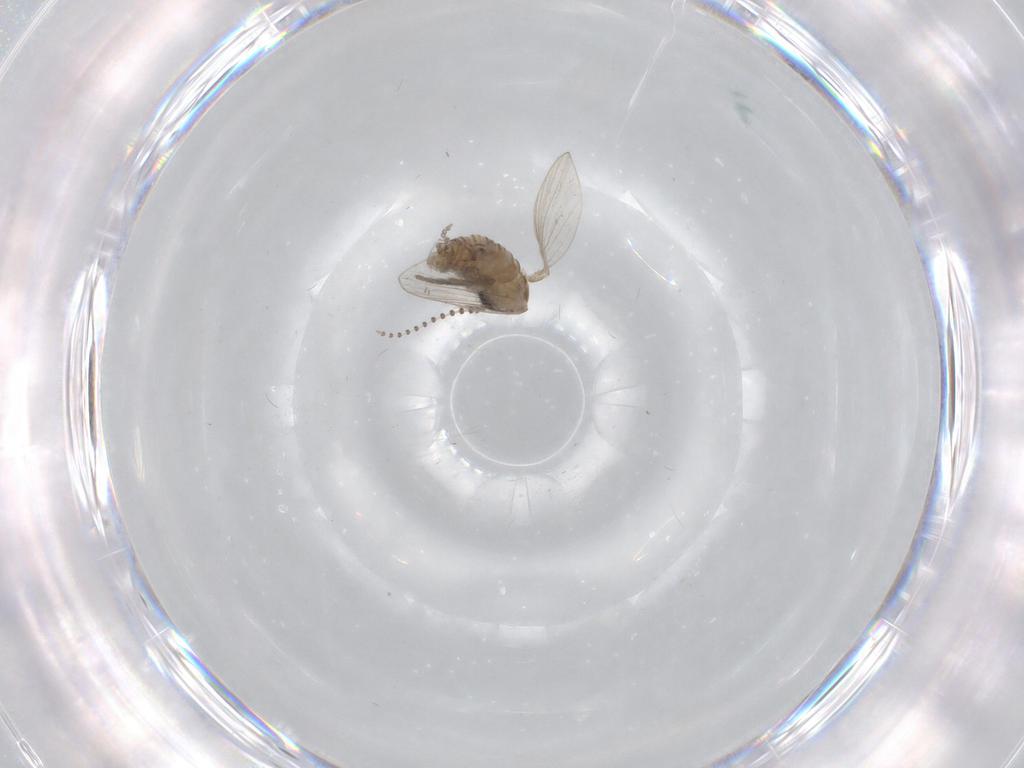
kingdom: Animalia
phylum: Arthropoda
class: Insecta
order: Diptera
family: Psychodidae
